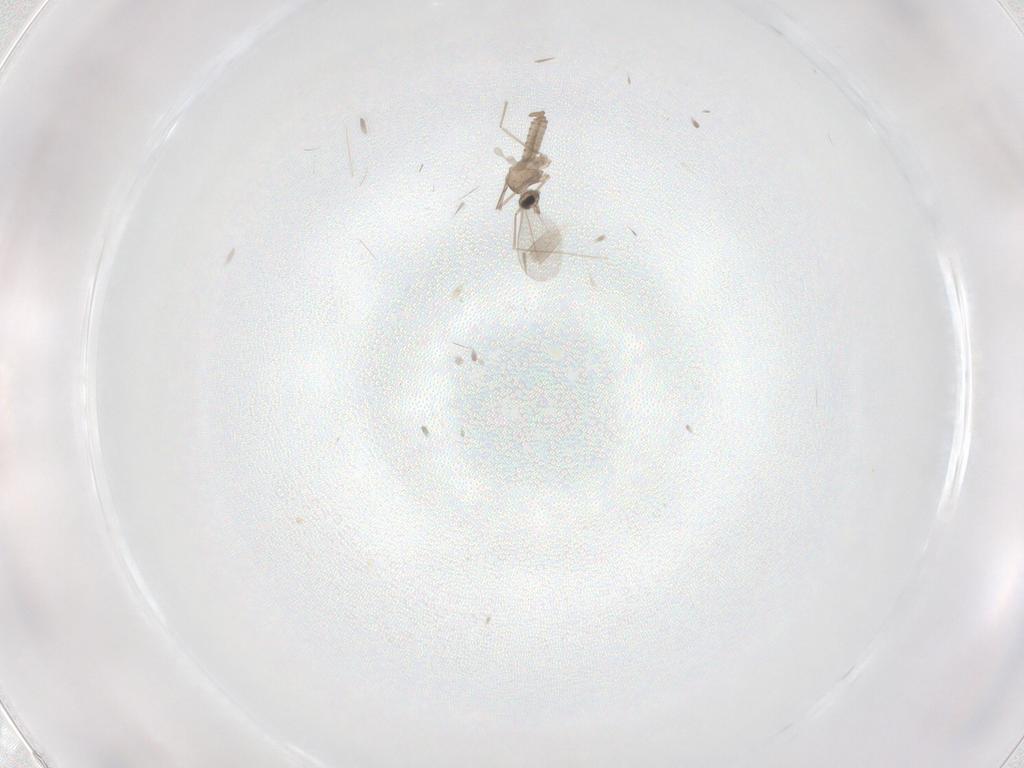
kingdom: Animalia
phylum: Arthropoda
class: Insecta
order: Diptera
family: Cecidomyiidae
